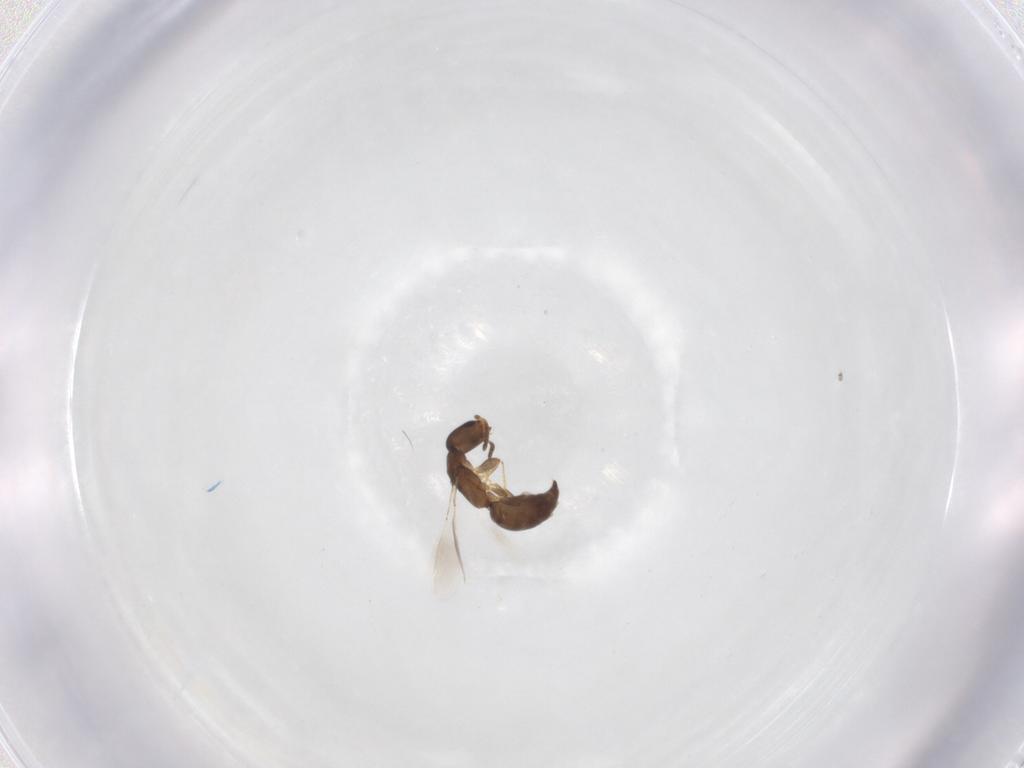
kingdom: Animalia
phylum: Arthropoda
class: Insecta
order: Hymenoptera
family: Bethylidae
